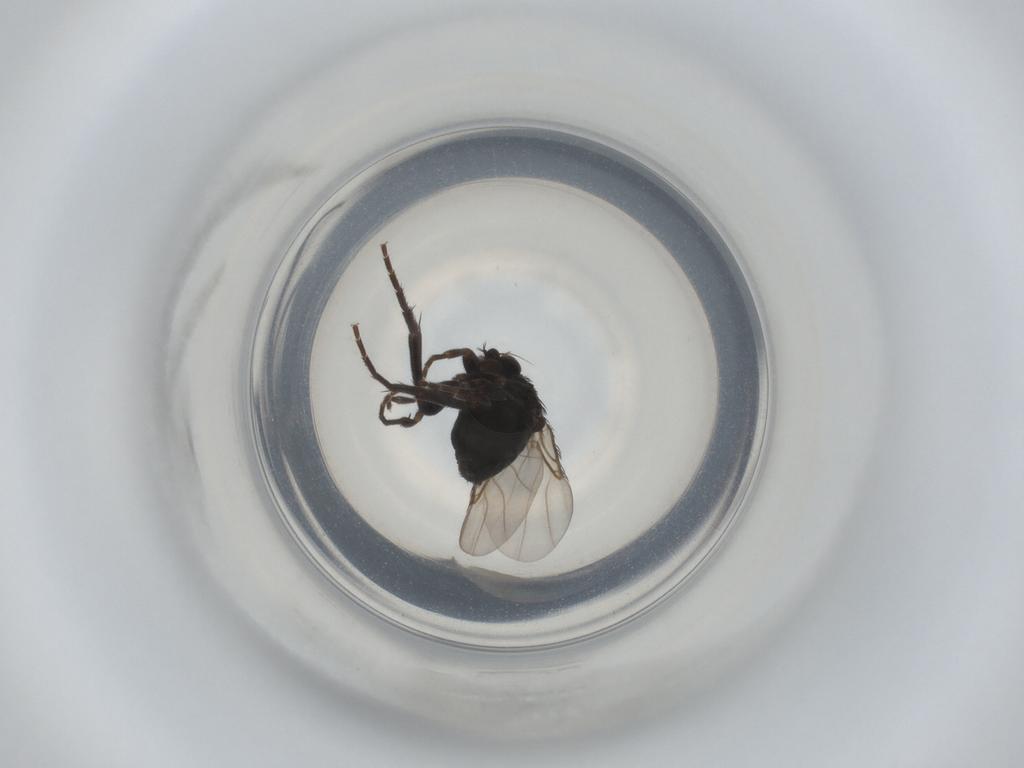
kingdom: Animalia
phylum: Arthropoda
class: Insecta
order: Diptera
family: Phoridae
